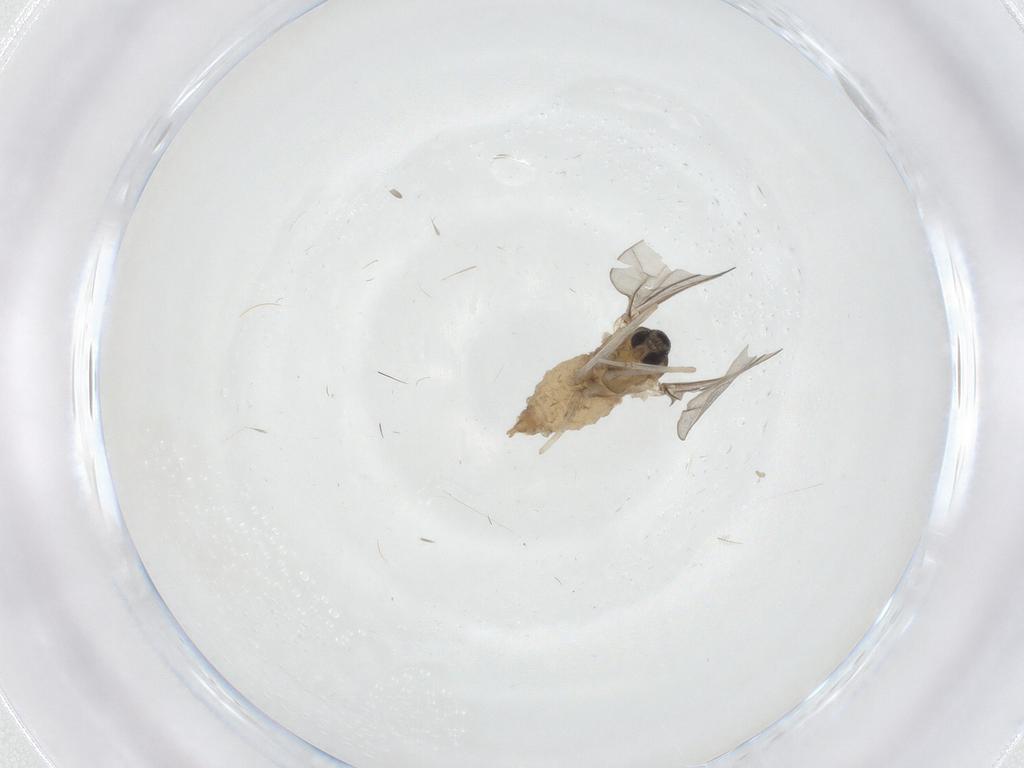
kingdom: Animalia
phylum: Arthropoda
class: Insecta
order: Diptera
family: Cecidomyiidae
